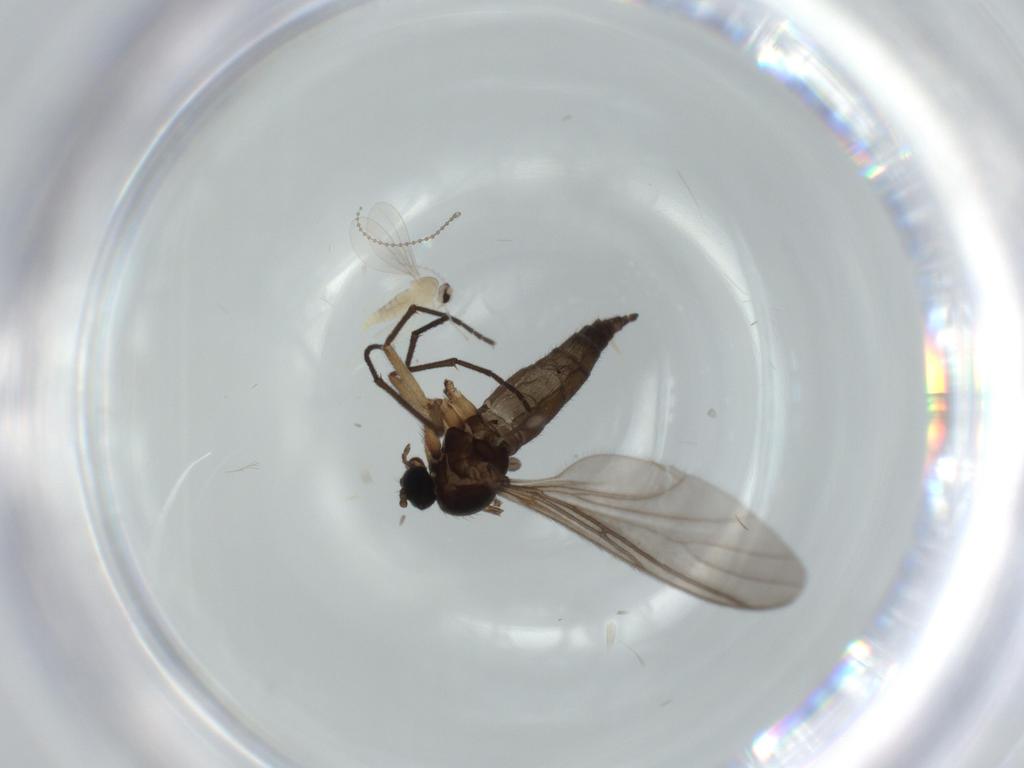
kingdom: Animalia
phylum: Arthropoda
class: Insecta
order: Diptera
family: Cecidomyiidae
